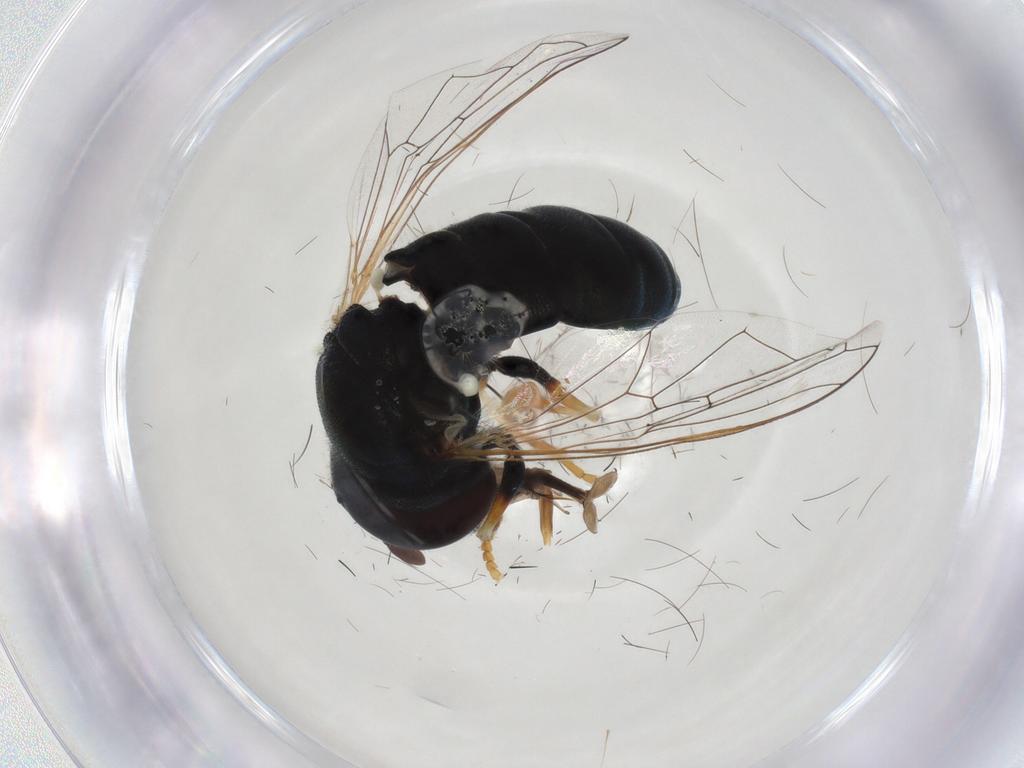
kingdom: Animalia
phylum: Arthropoda
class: Insecta
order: Diptera
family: Syrphidae
